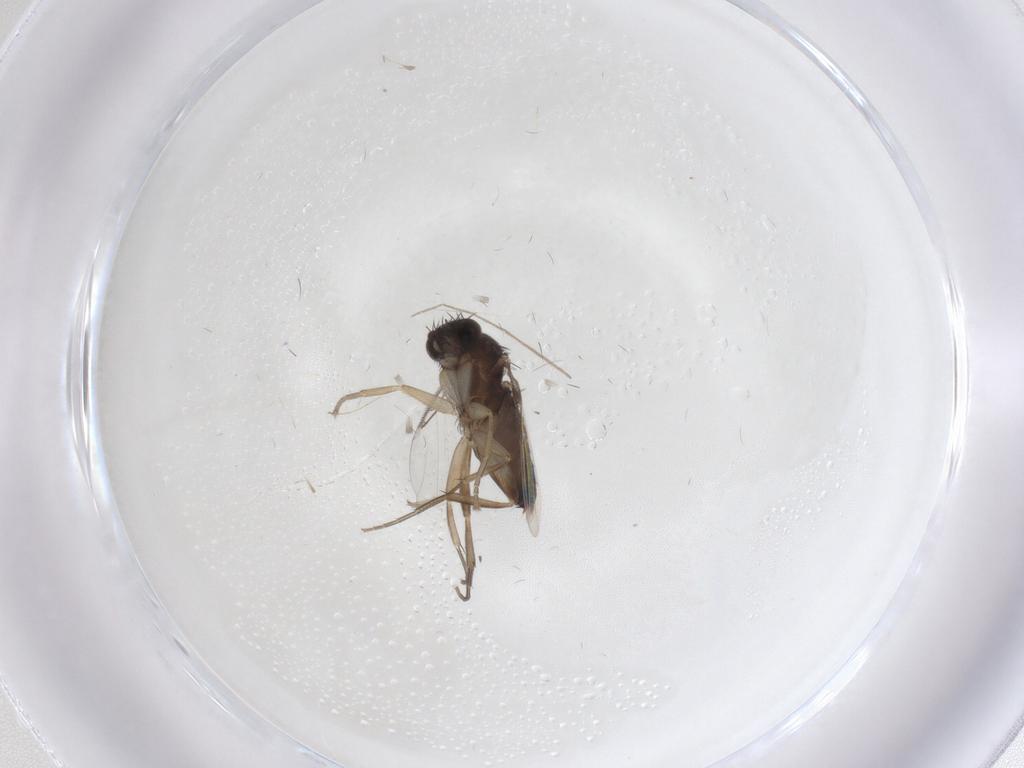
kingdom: Animalia
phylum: Arthropoda
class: Insecta
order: Diptera
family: Phoridae
